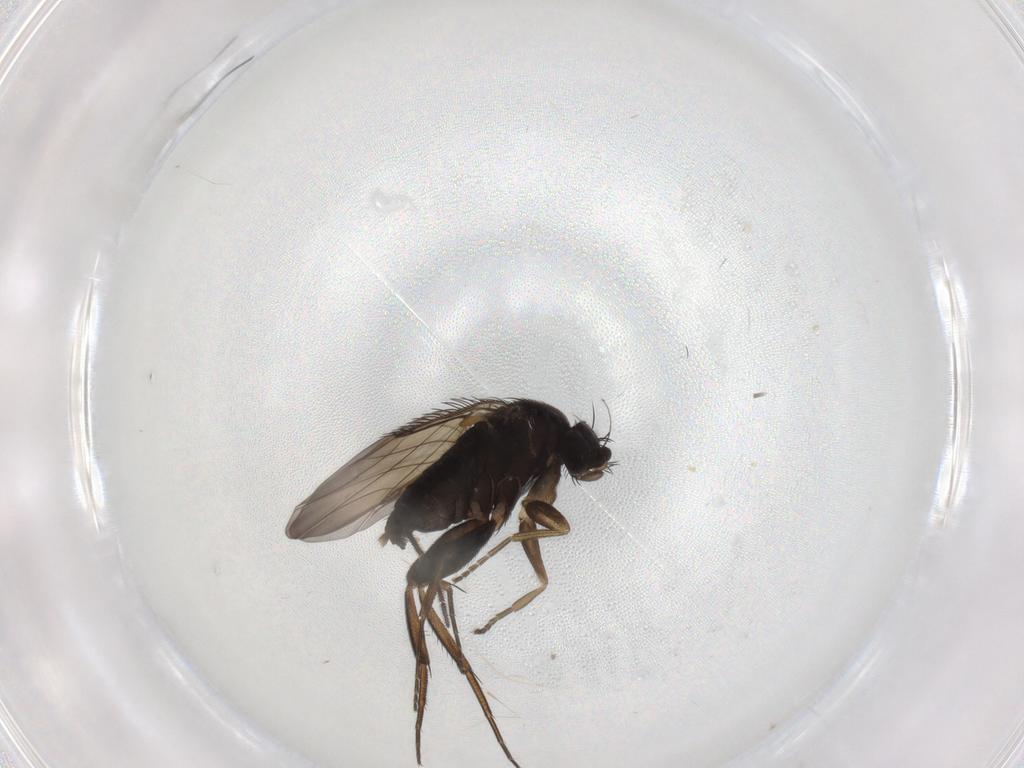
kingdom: Animalia
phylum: Arthropoda
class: Insecta
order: Diptera
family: Phoridae
